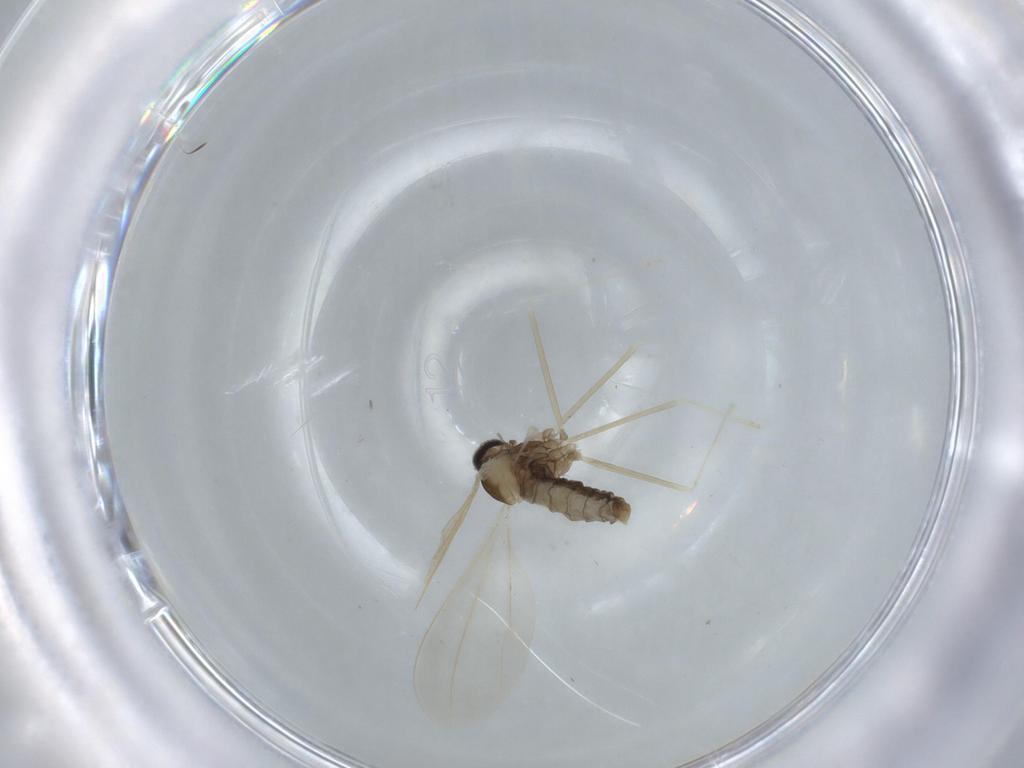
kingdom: Animalia
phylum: Arthropoda
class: Insecta
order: Diptera
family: Cecidomyiidae
